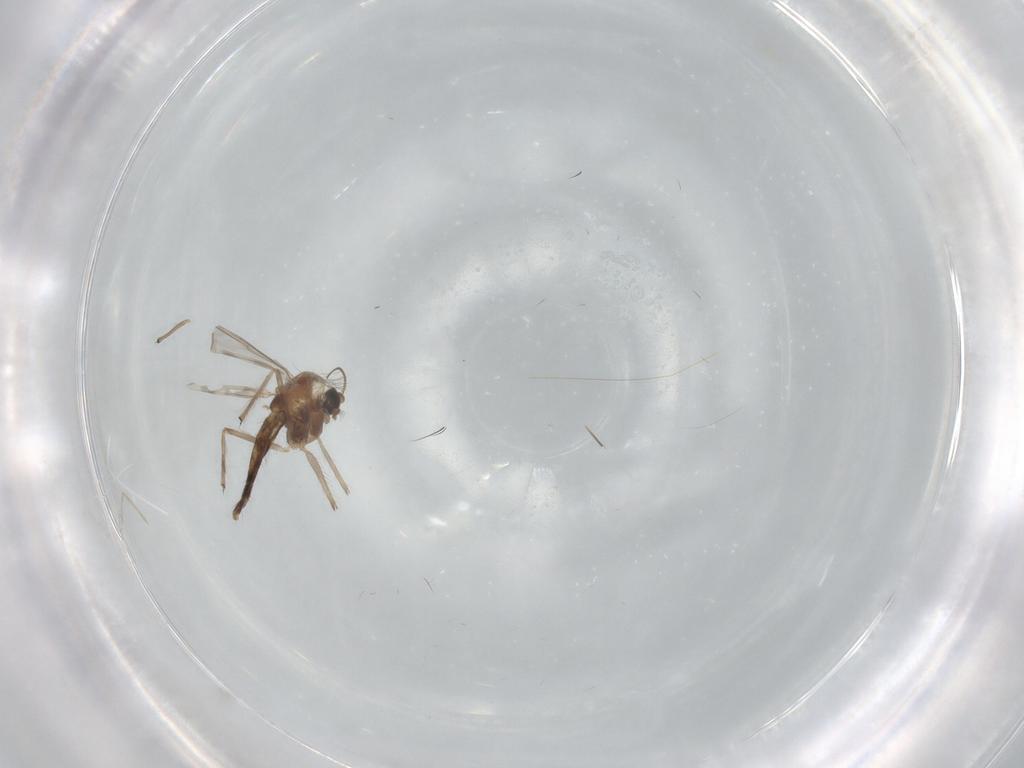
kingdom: Animalia
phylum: Arthropoda
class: Insecta
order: Diptera
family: Chironomidae
